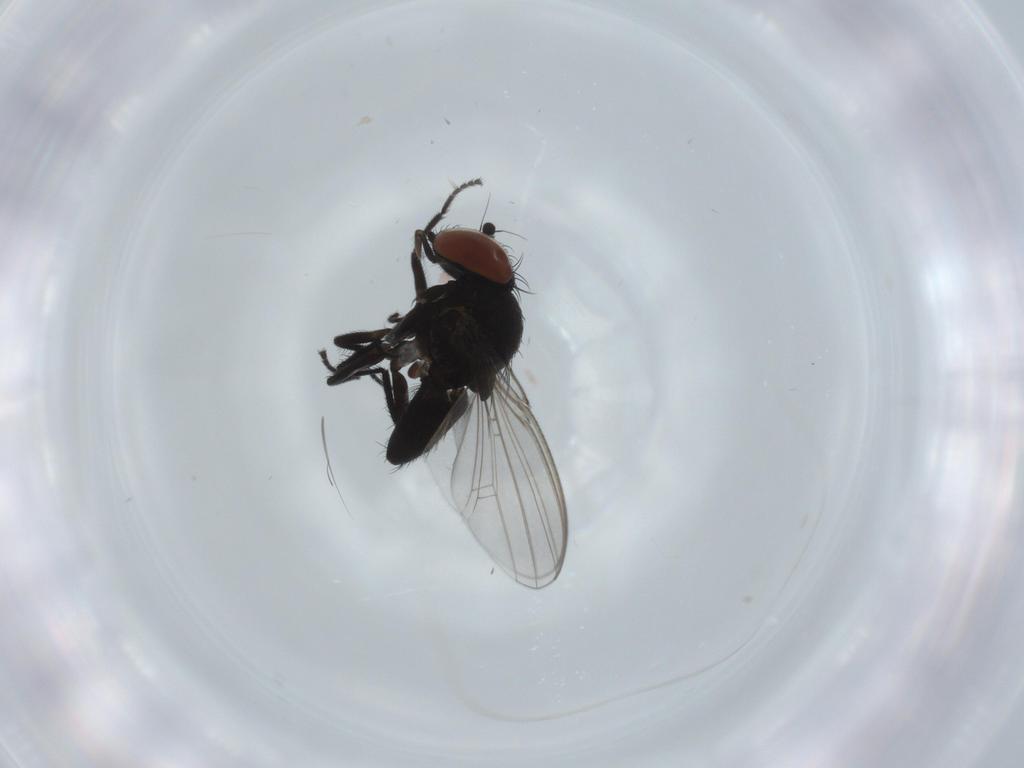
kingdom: Animalia
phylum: Arthropoda
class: Insecta
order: Diptera
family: Milichiidae
